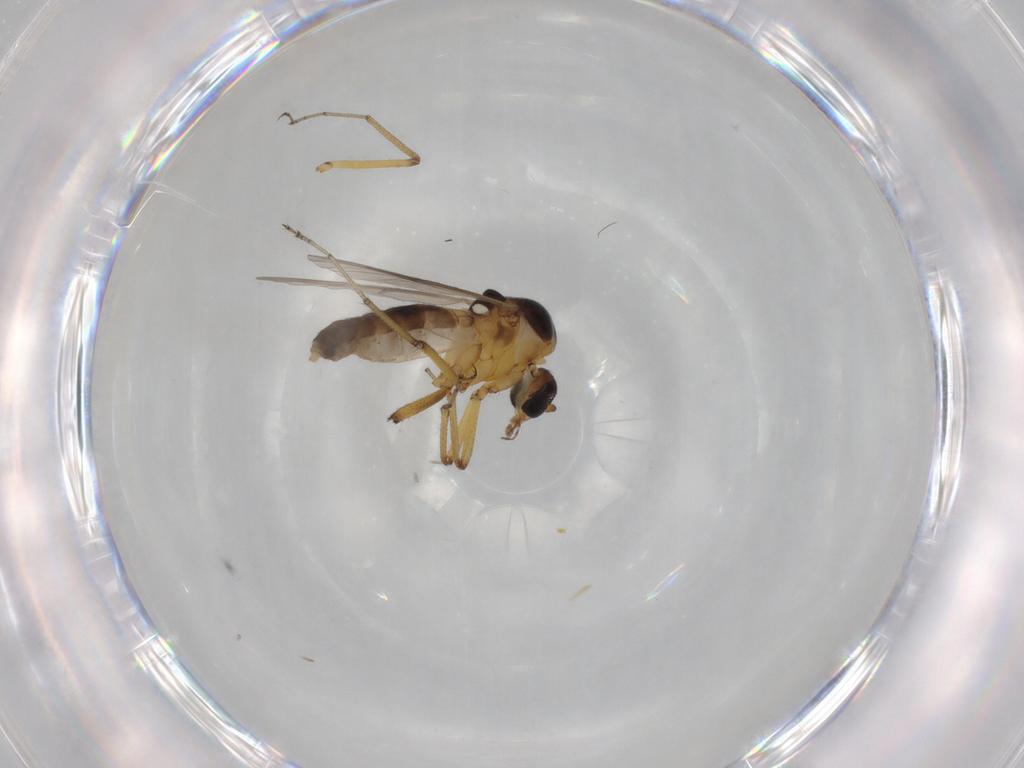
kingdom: Animalia
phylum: Arthropoda
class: Insecta
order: Diptera
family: Ceratopogonidae
